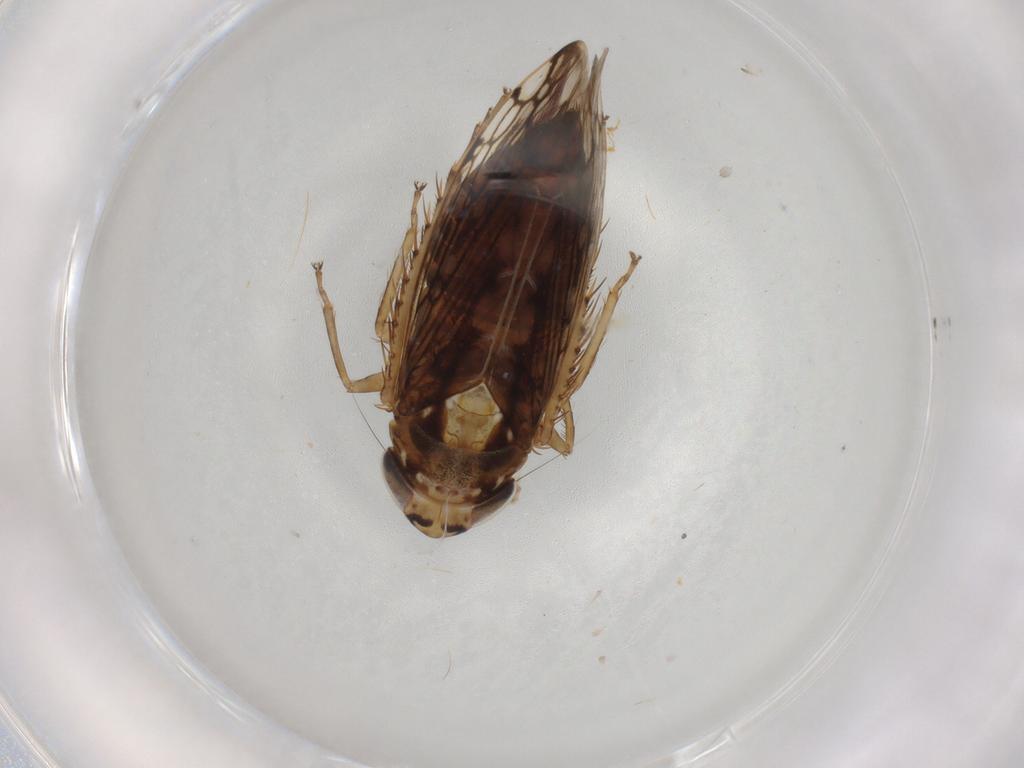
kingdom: Animalia
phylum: Arthropoda
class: Insecta
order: Hemiptera
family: Cicadellidae
